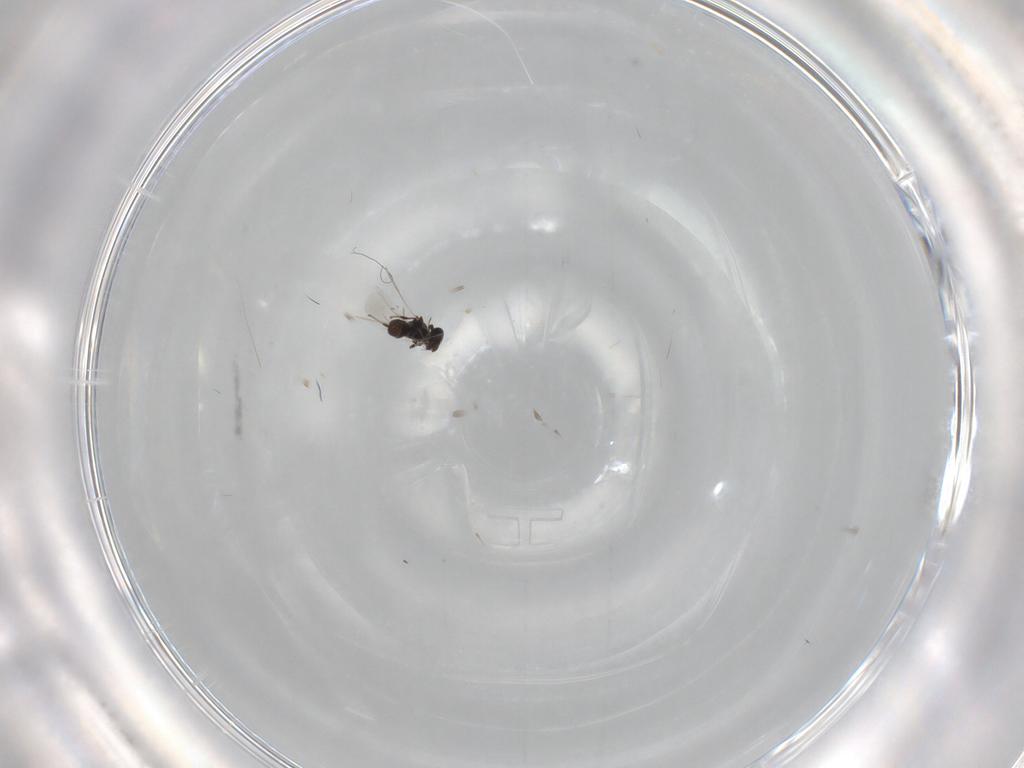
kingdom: Animalia
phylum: Arthropoda
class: Insecta
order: Hymenoptera
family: Platygastridae
